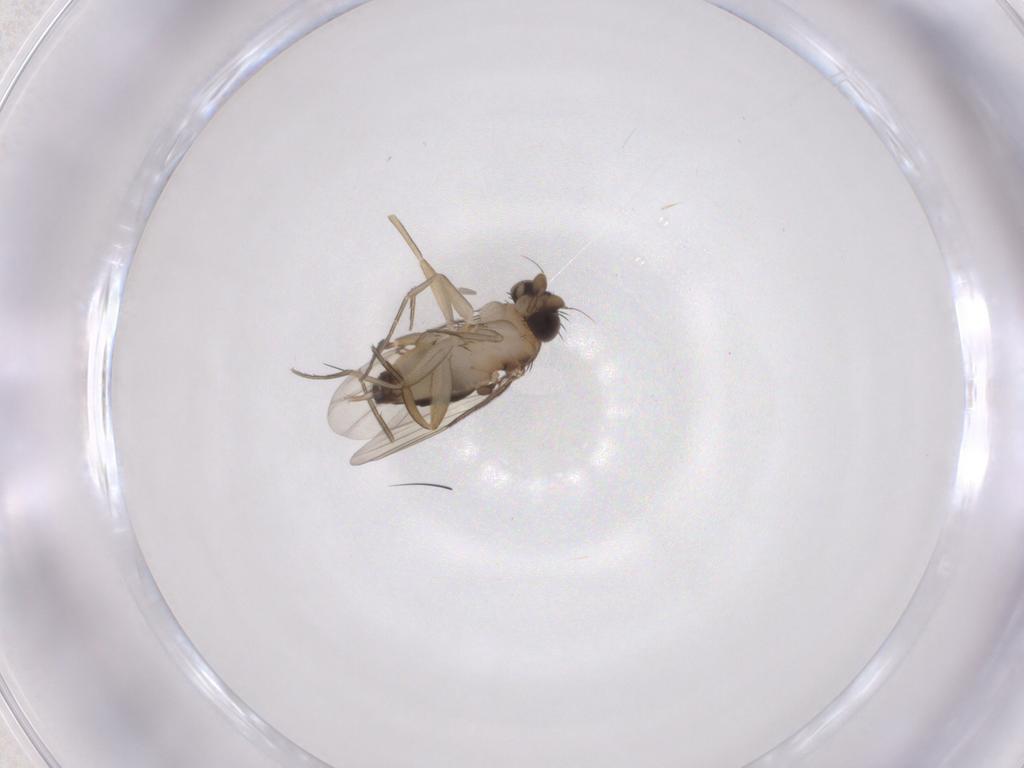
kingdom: Animalia
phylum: Arthropoda
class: Insecta
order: Diptera
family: Phoridae
